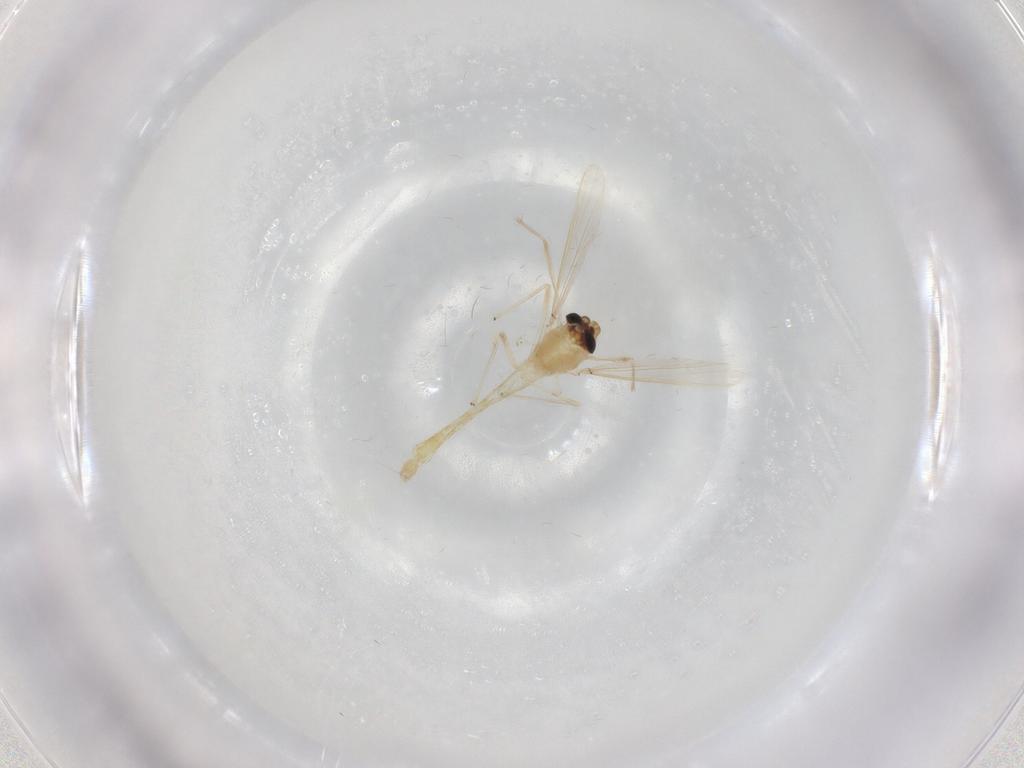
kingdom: Animalia
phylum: Arthropoda
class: Insecta
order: Diptera
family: Chironomidae
